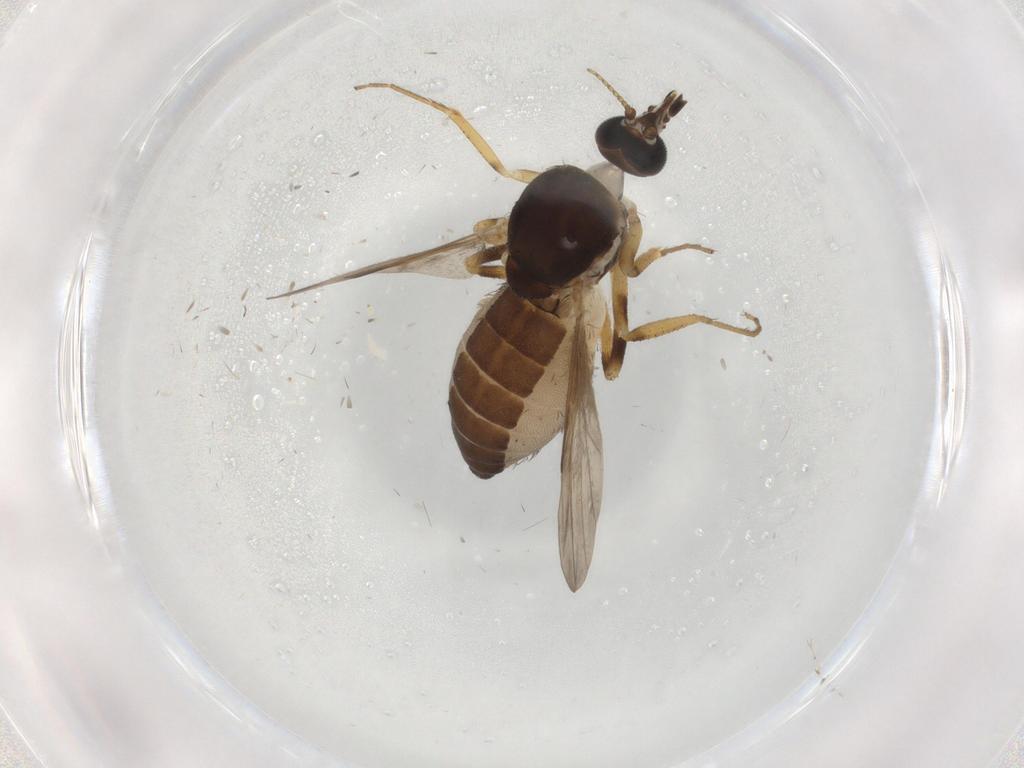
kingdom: Animalia
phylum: Arthropoda
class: Insecta
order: Diptera
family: Ceratopogonidae
